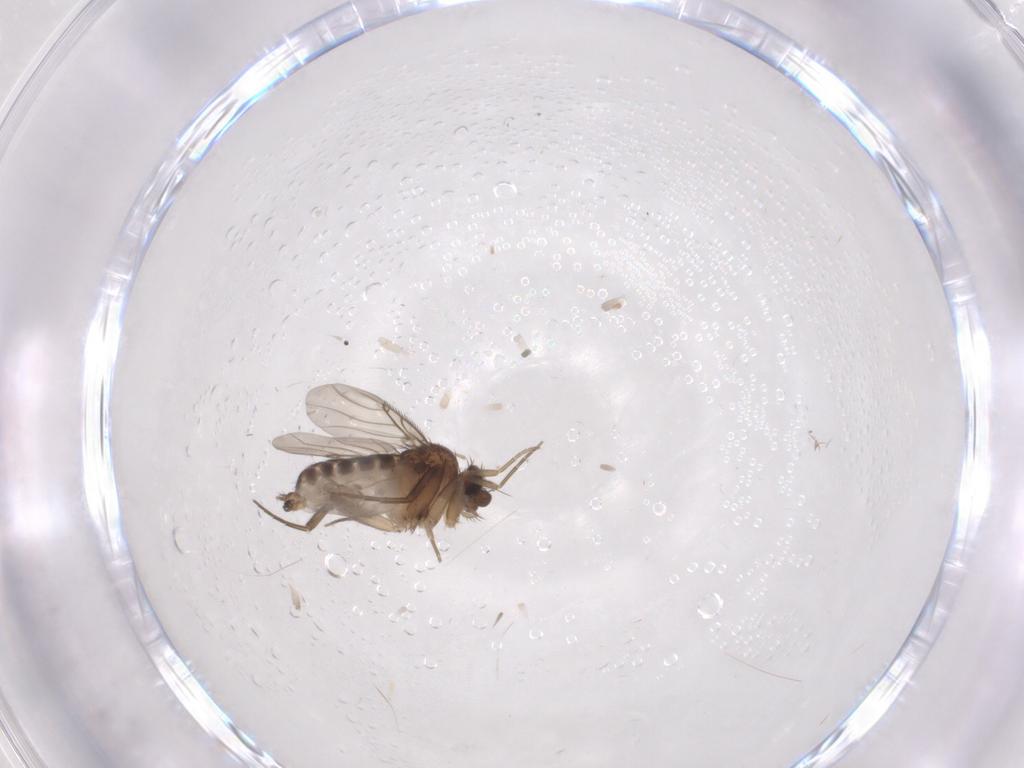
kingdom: Animalia
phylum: Arthropoda
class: Insecta
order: Diptera
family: Phoridae
